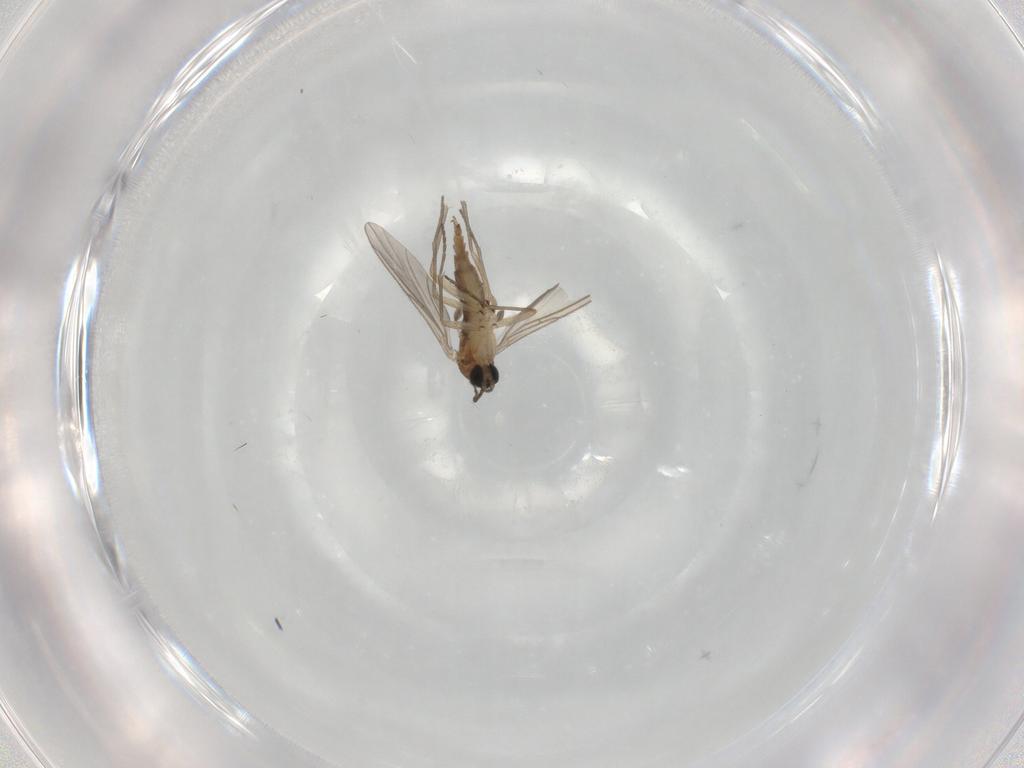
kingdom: Animalia
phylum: Arthropoda
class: Insecta
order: Diptera
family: Sciaridae
